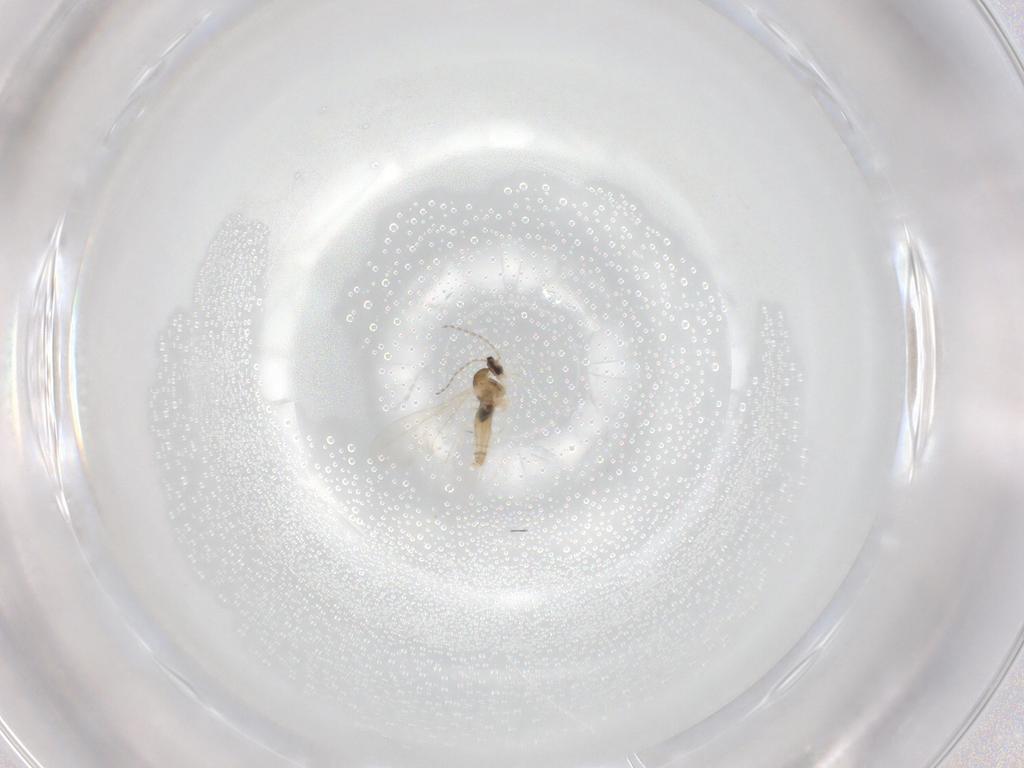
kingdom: Animalia
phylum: Arthropoda
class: Insecta
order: Diptera
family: Cecidomyiidae
